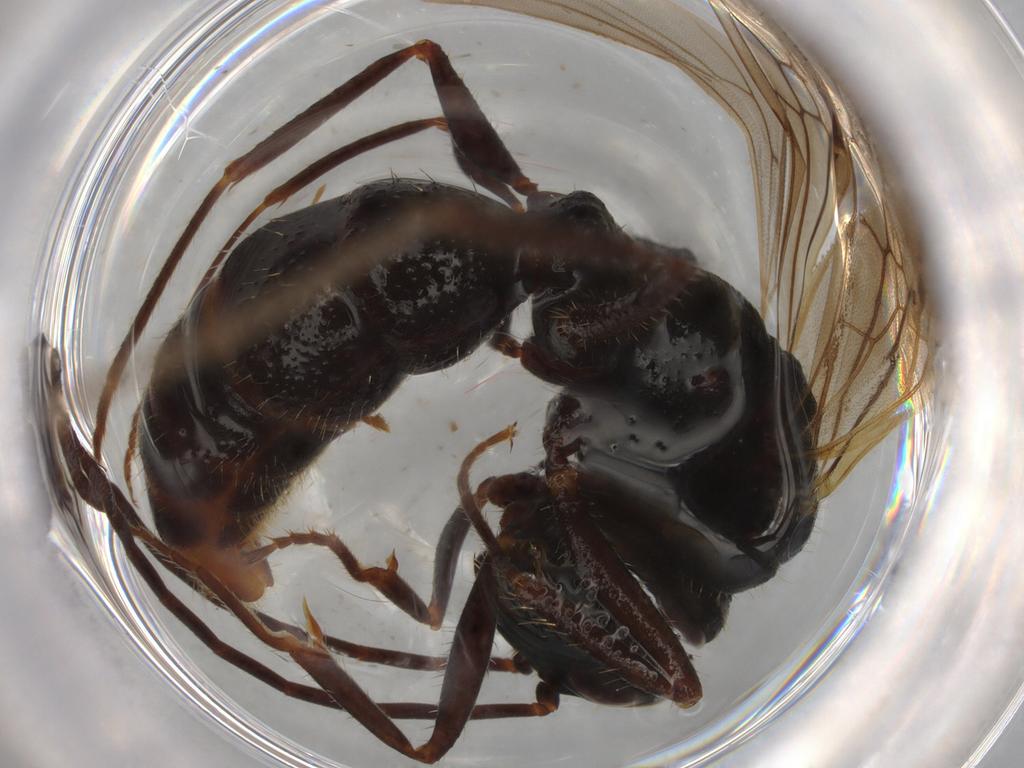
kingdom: Animalia
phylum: Arthropoda
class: Insecta
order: Hymenoptera
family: Formicidae
